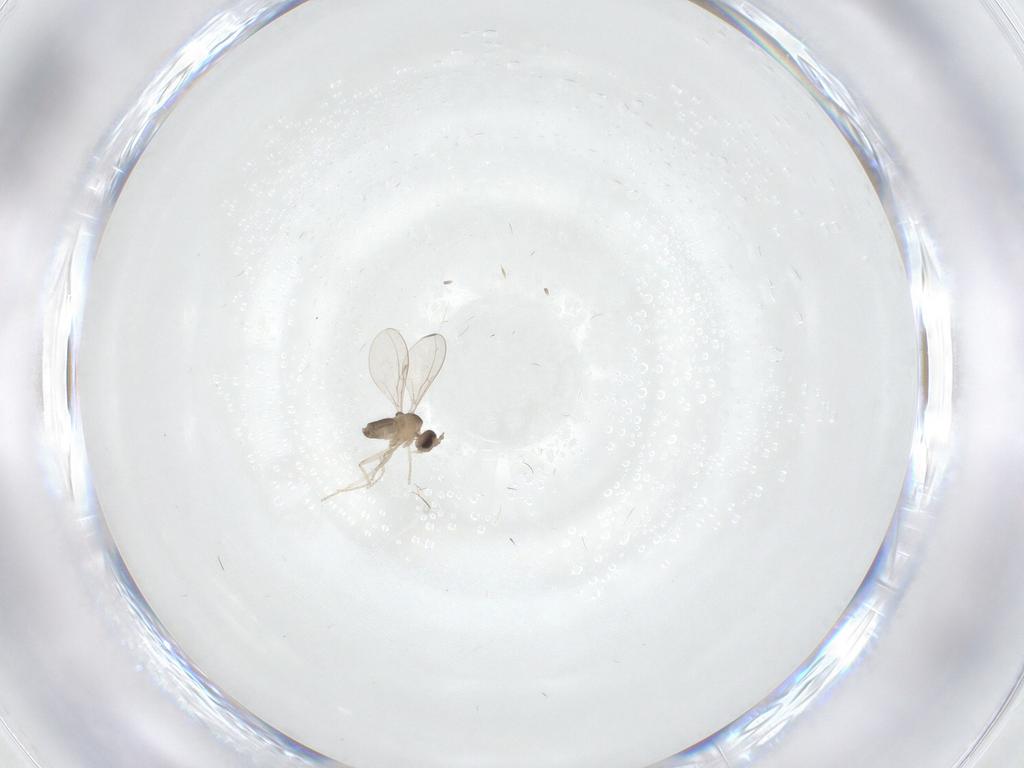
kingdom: Animalia
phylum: Arthropoda
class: Insecta
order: Diptera
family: Cecidomyiidae
